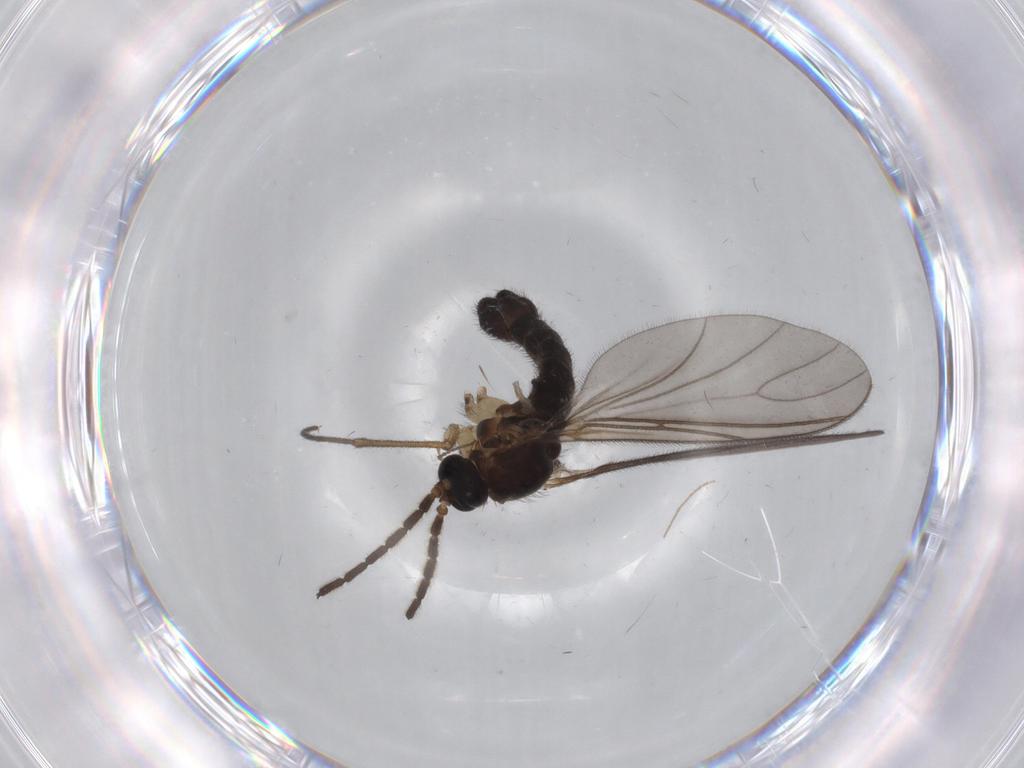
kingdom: Animalia
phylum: Arthropoda
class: Insecta
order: Diptera
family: Sciaridae
